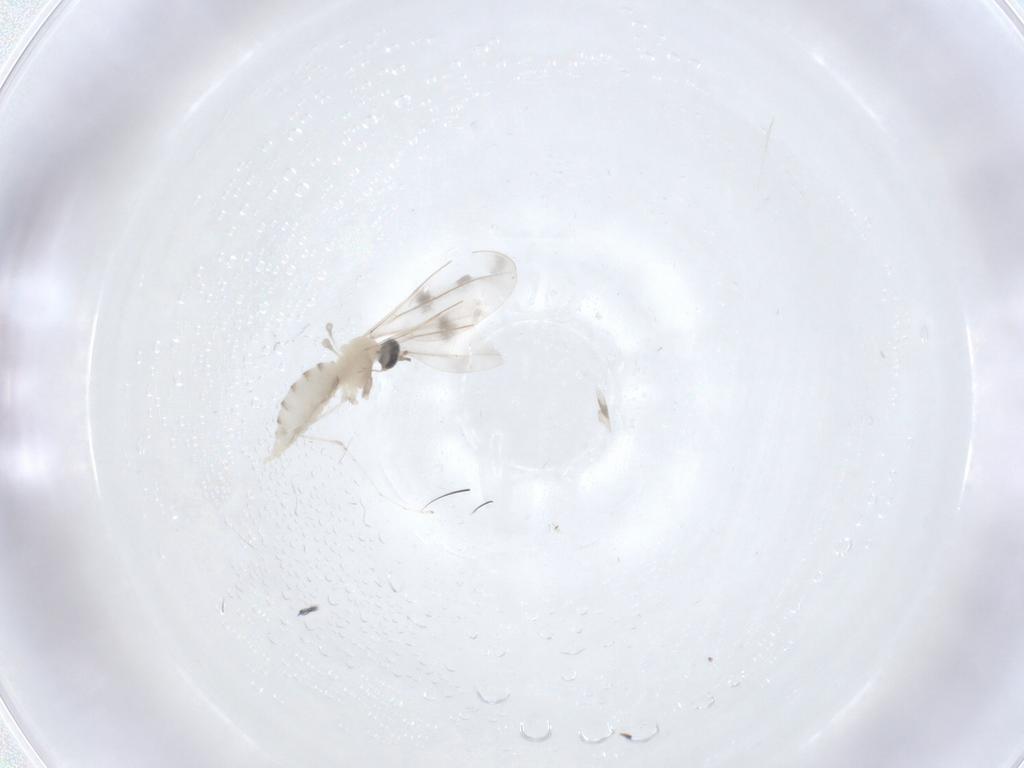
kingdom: Animalia
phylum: Arthropoda
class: Insecta
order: Diptera
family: Cecidomyiidae
